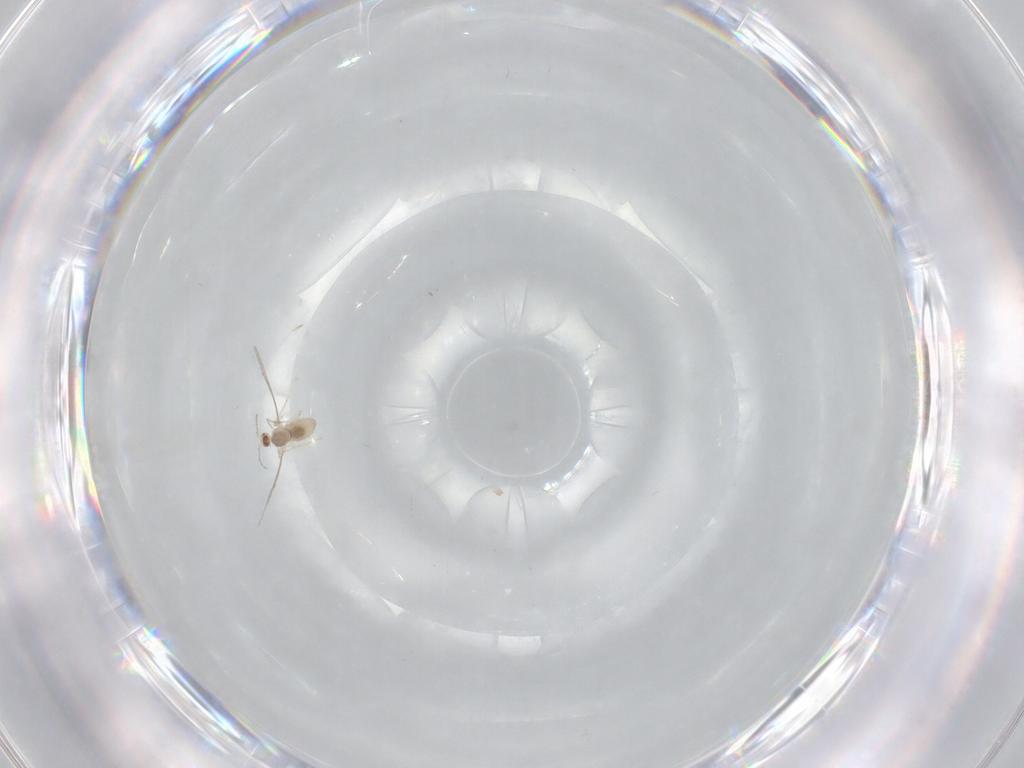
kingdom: Animalia
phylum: Arthropoda
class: Insecta
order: Diptera
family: Cecidomyiidae
